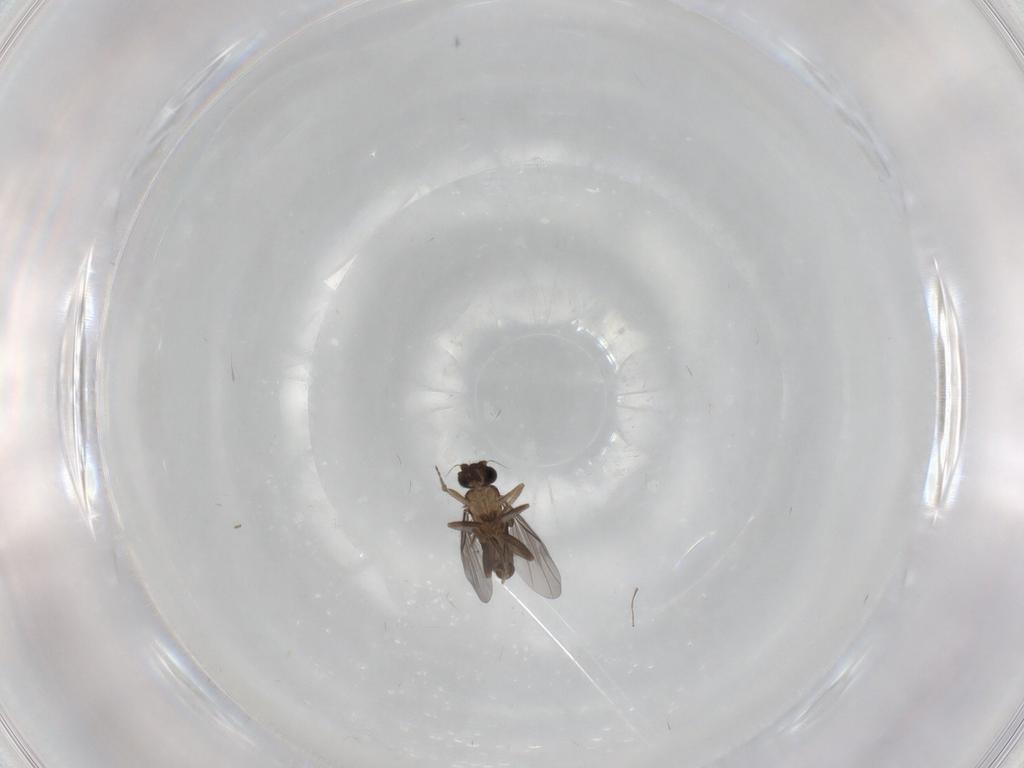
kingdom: Animalia
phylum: Arthropoda
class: Insecta
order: Diptera
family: Phoridae
